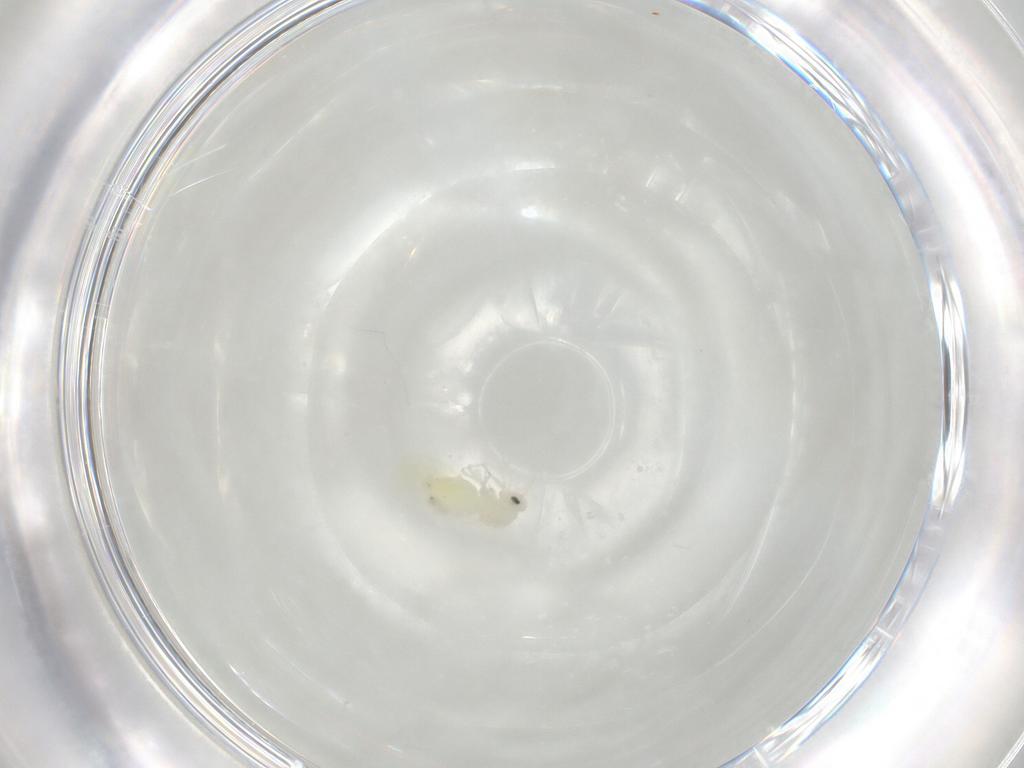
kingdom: Animalia
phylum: Arthropoda
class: Insecta
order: Hemiptera
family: Aleyrodidae
